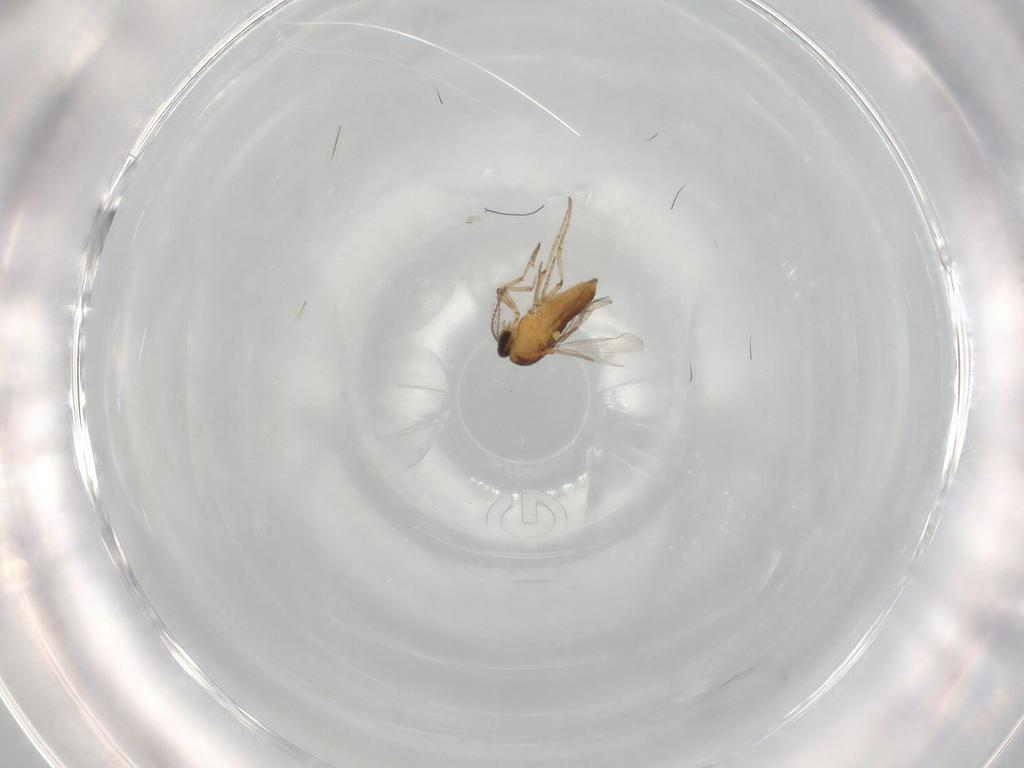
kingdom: Animalia
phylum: Arthropoda
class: Insecta
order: Diptera
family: Ceratopogonidae
